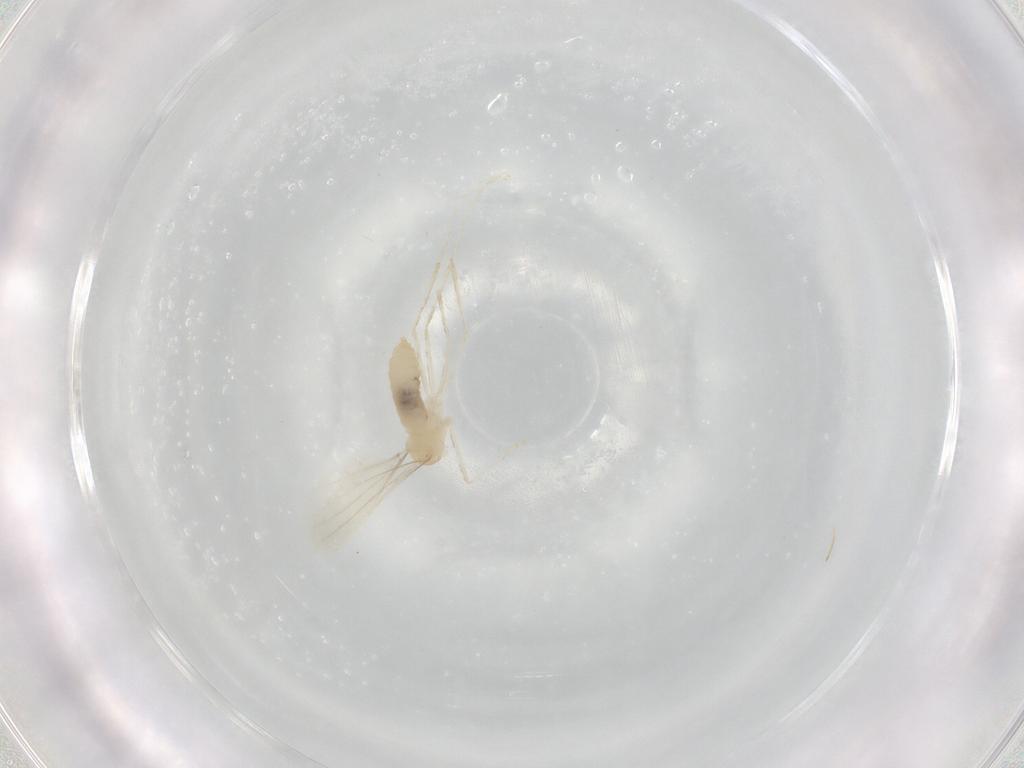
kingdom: Animalia
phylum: Arthropoda
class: Insecta
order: Diptera
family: Cecidomyiidae
